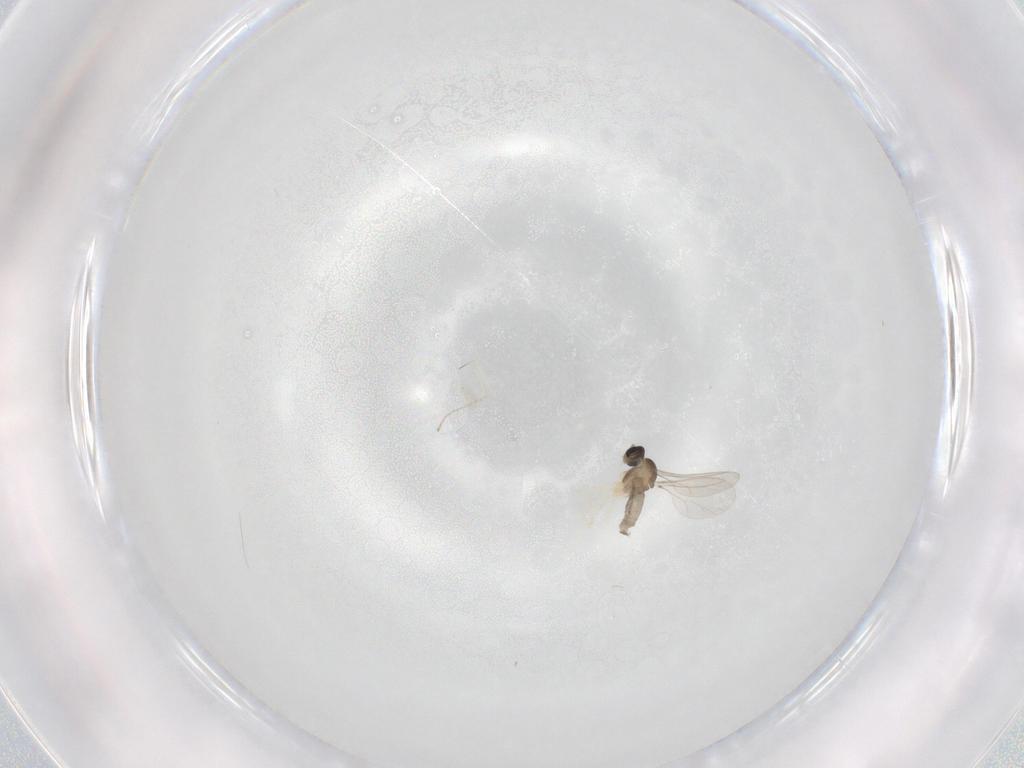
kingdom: Animalia
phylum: Arthropoda
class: Insecta
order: Diptera
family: Cecidomyiidae
